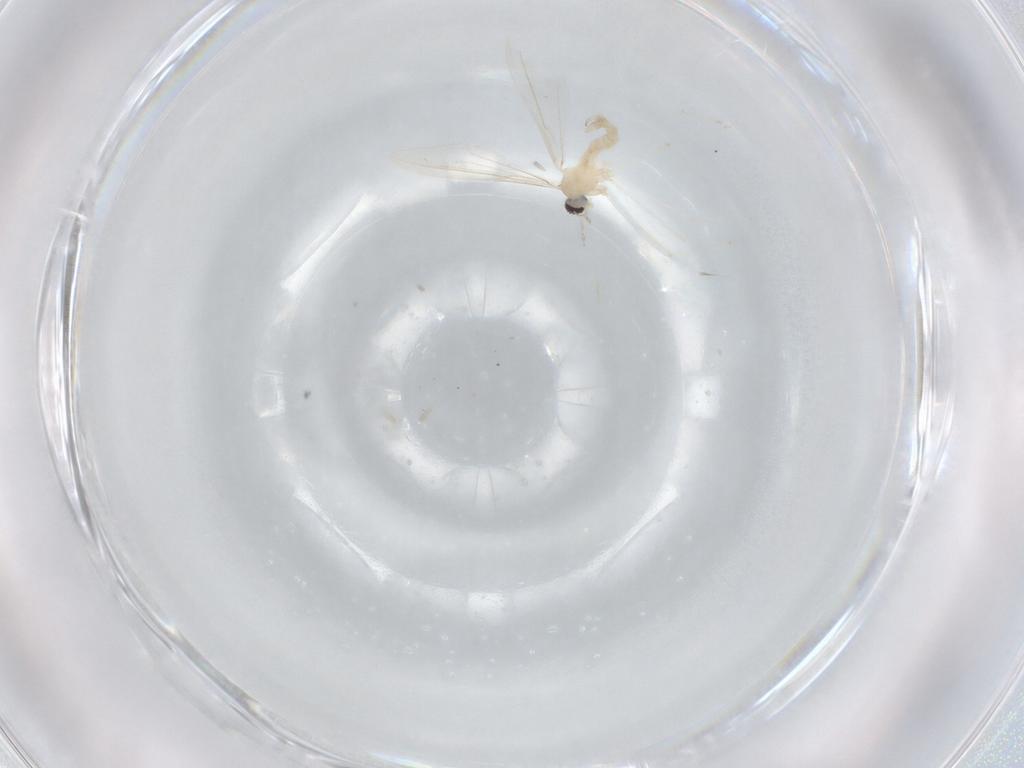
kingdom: Animalia
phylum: Arthropoda
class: Insecta
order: Diptera
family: Cecidomyiidae
